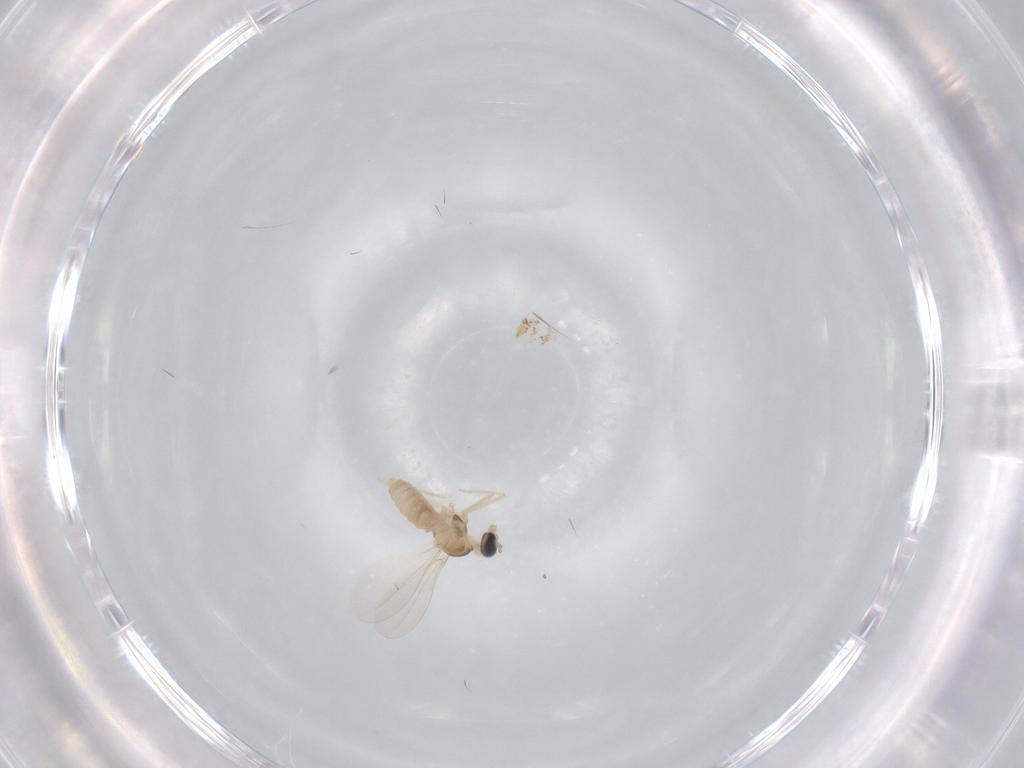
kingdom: Animalia
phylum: Arthropoda
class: Insecta
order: Diptera
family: Cecidomyiidae
